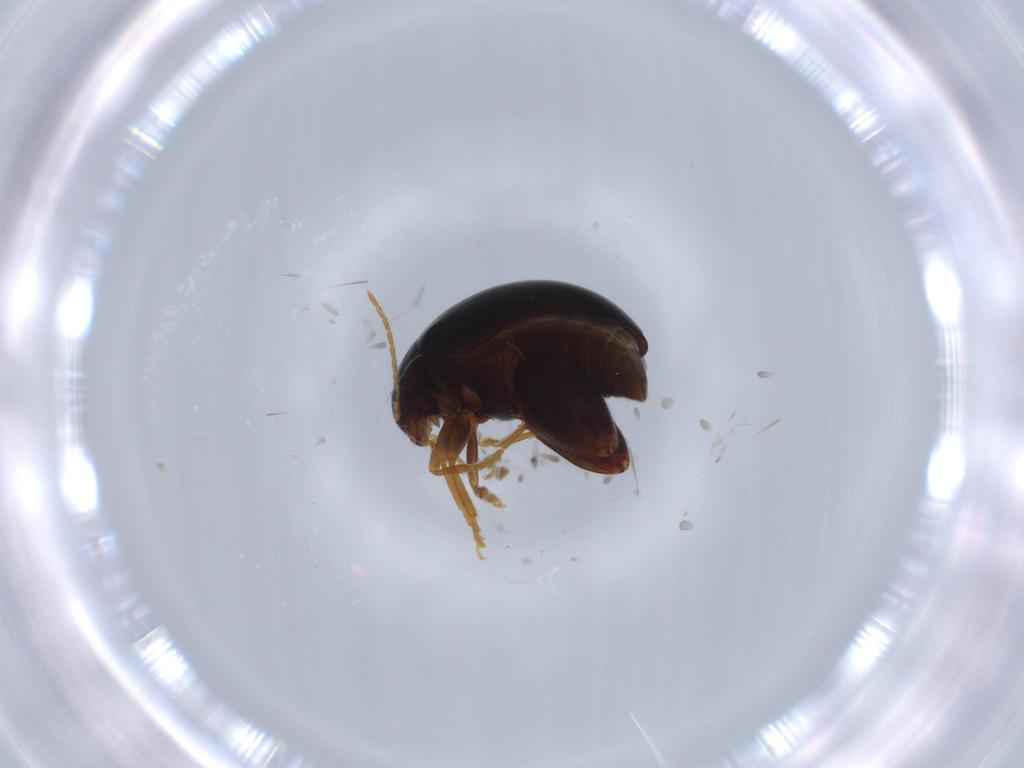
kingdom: Animalia
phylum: Arthropoda
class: Insecta
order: Coleoptera
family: Chrysomelidae
